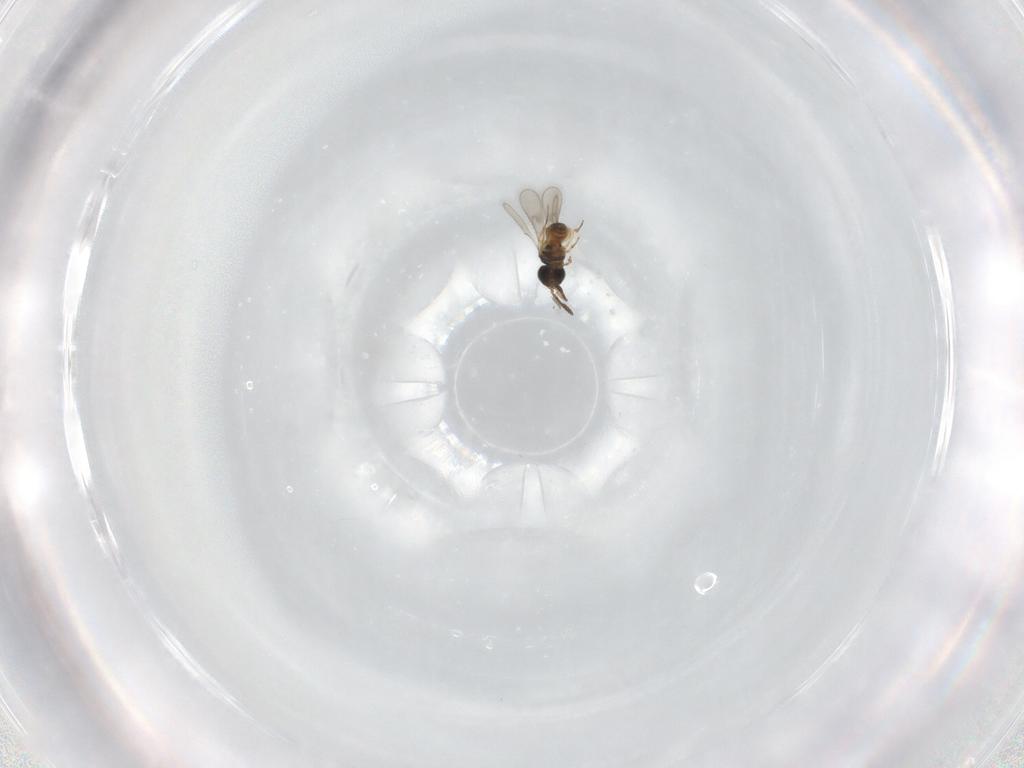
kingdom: Animalia
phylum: Arthropoda
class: Insecta
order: Hymenoptera
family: Scelionidae
